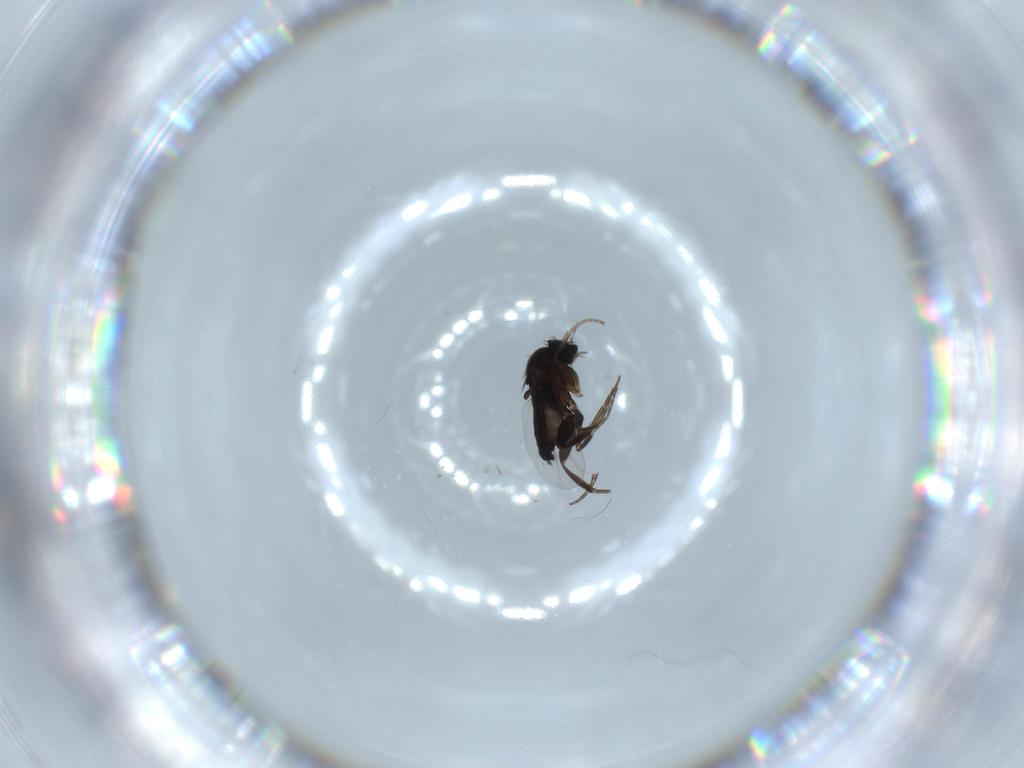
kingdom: Animalia
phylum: Arthropoda
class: Insecta
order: Diptera
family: Phoridae
